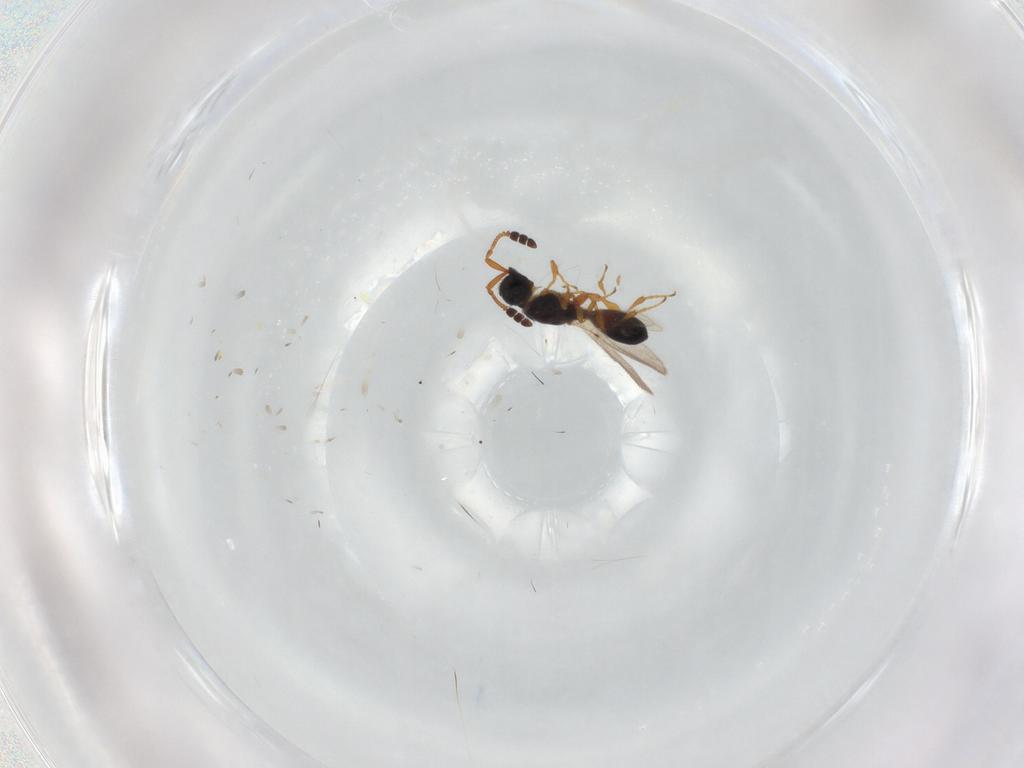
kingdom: Animalia
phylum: Arthropoda
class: Insecta
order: Hymenoptera
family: Diapriidae
